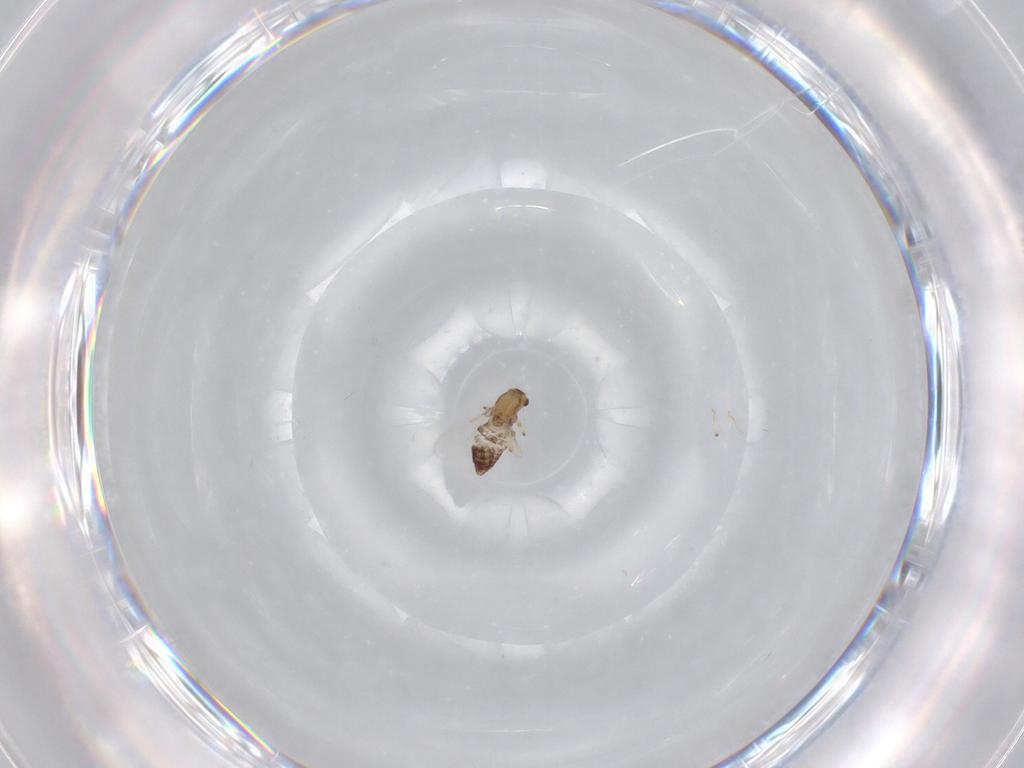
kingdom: Animalia
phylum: Arthropoda
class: Insecta
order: Diptera
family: Chironomidae
